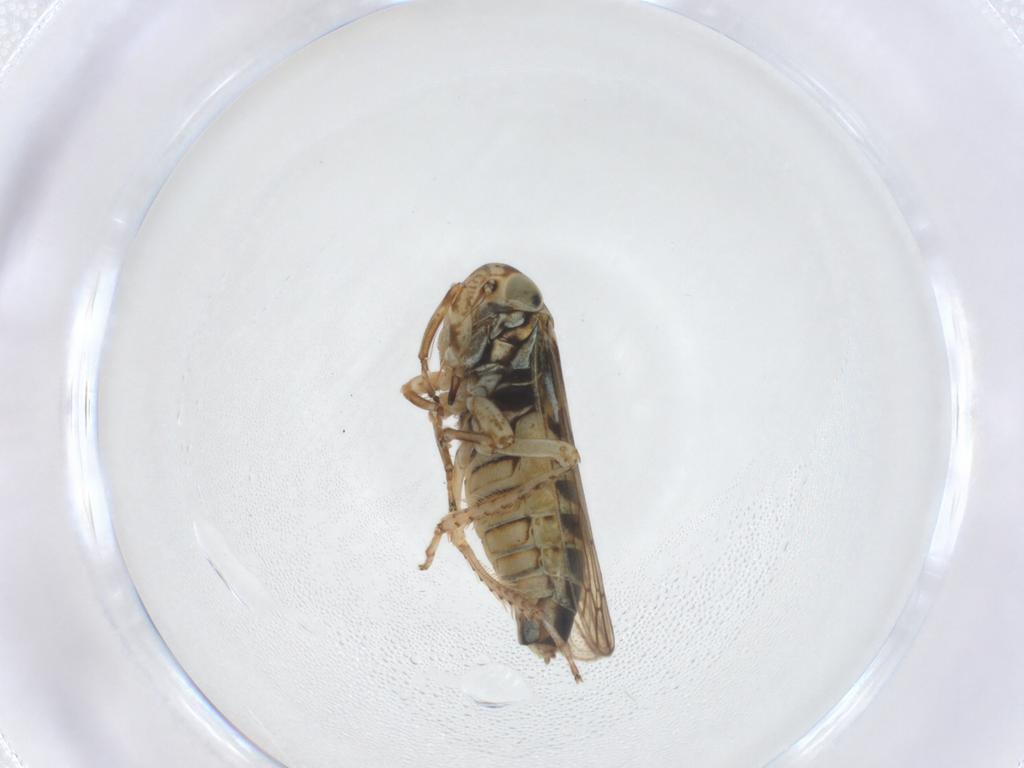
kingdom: Animalia
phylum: Arthropoda
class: Insecta
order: Hemiptera
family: Cicadellidae
